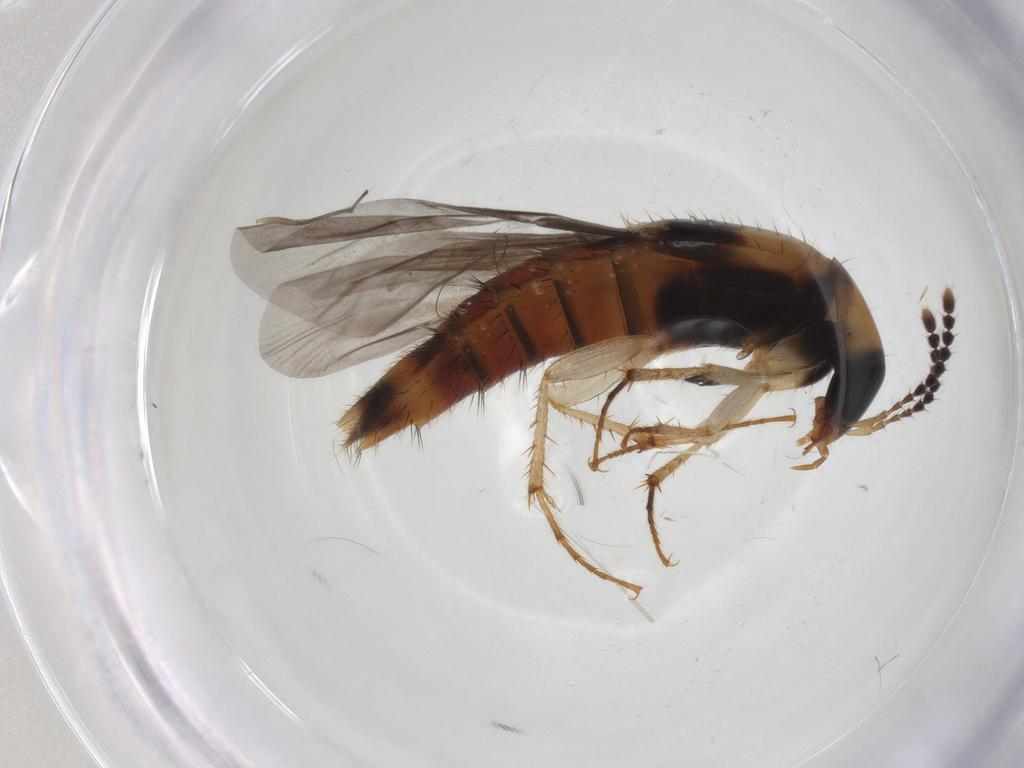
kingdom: Animalia
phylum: Arthropoda
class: Insecta
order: Coleoptera
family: Staphylinidae
